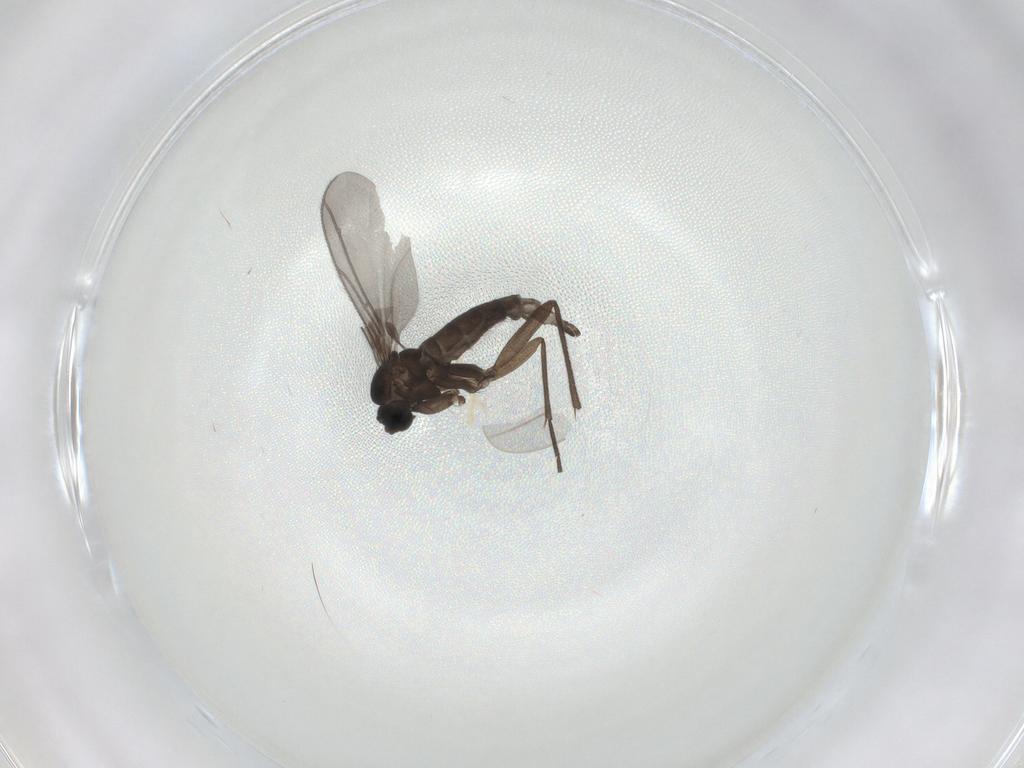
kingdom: Animalia
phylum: Arthropoda
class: Insecta
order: Diptera
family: Sciaridae
